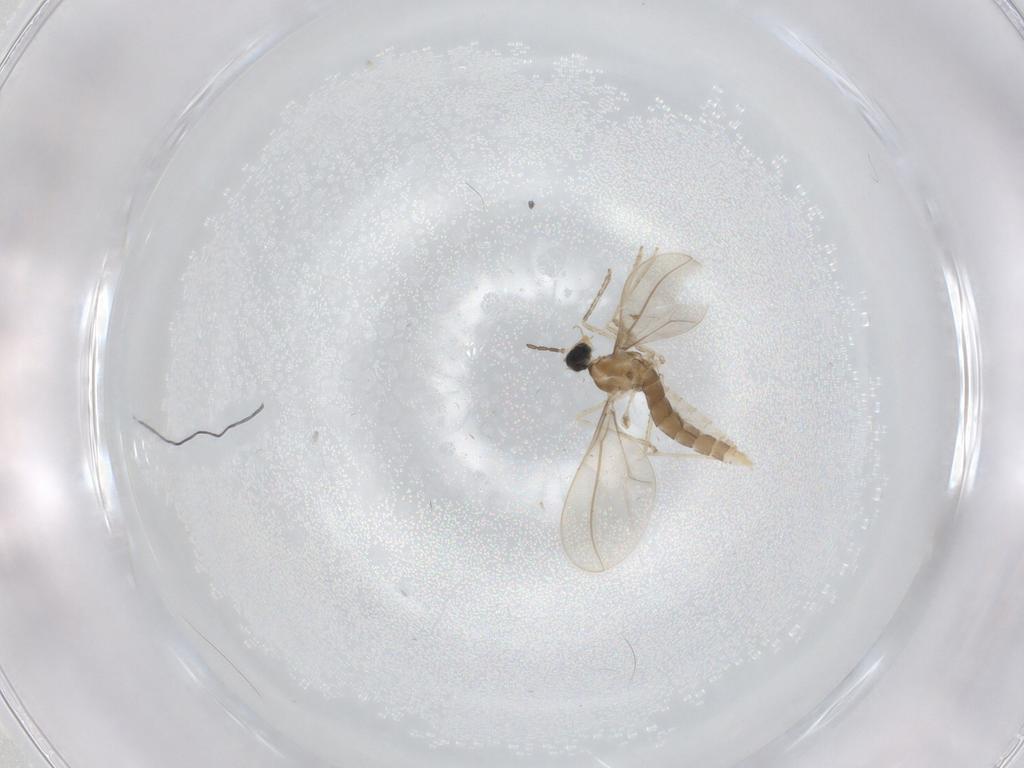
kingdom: Animalia
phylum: Arthropoda
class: Insecta
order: Diptera
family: Cecidomyiidae
